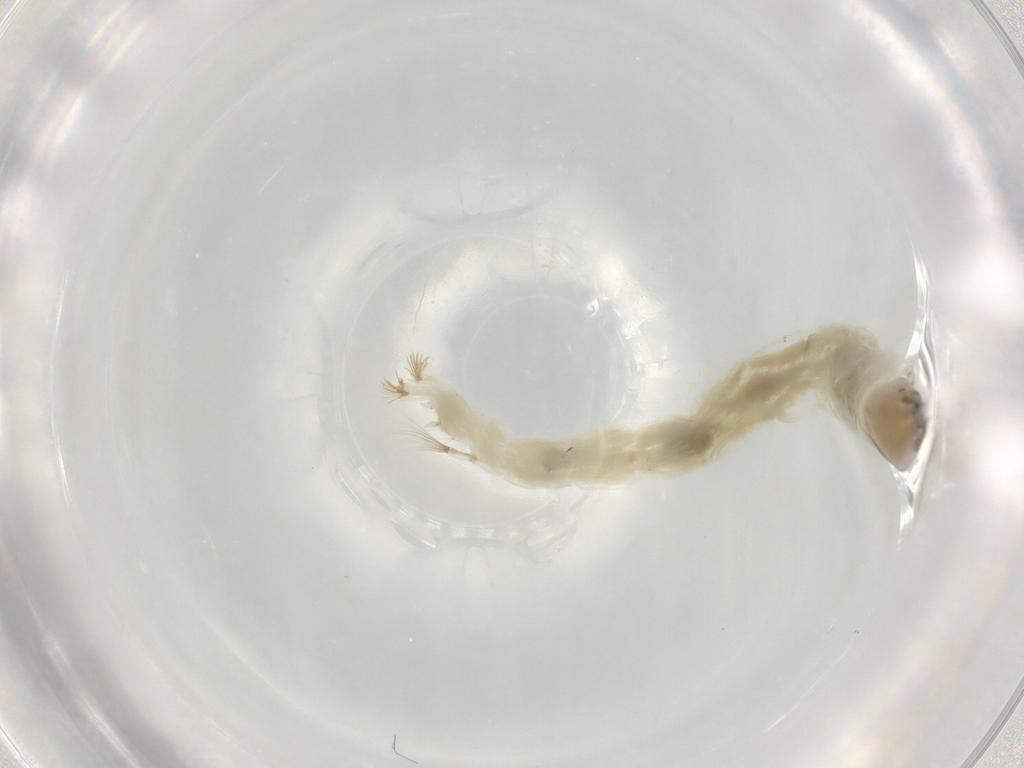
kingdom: Animalia
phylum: Arthropoda
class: Insecta
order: Diptera
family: Chironomidae
